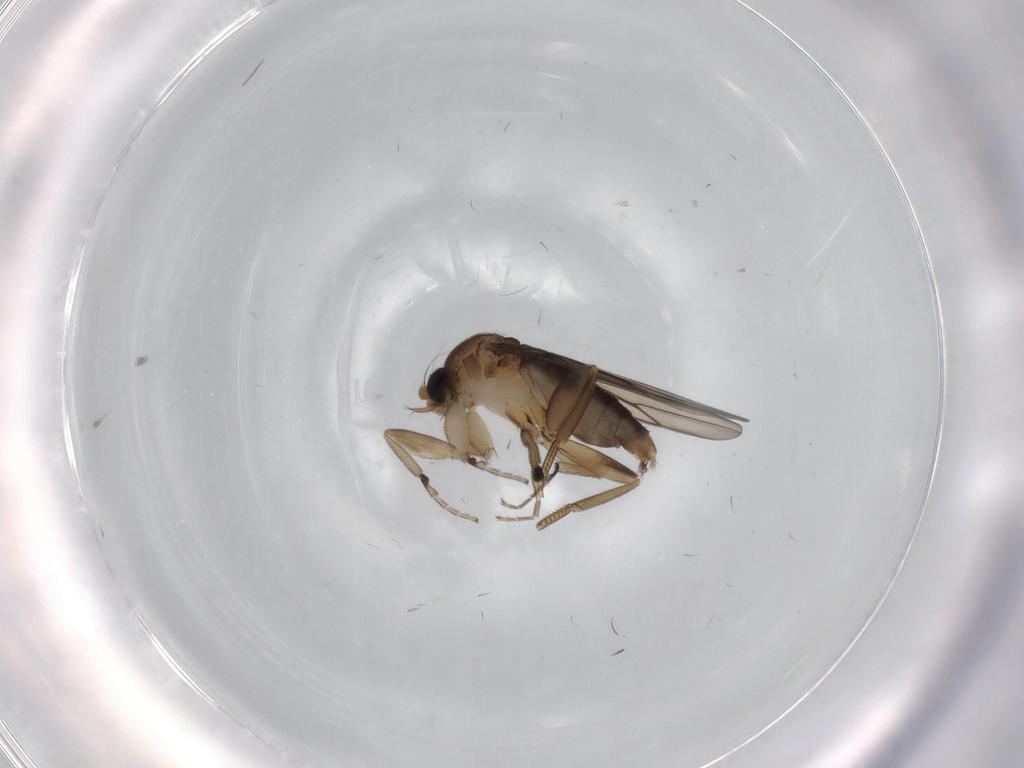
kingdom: Animalia
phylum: Arthropoda
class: Insecta
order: Diptera
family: Phoridae
